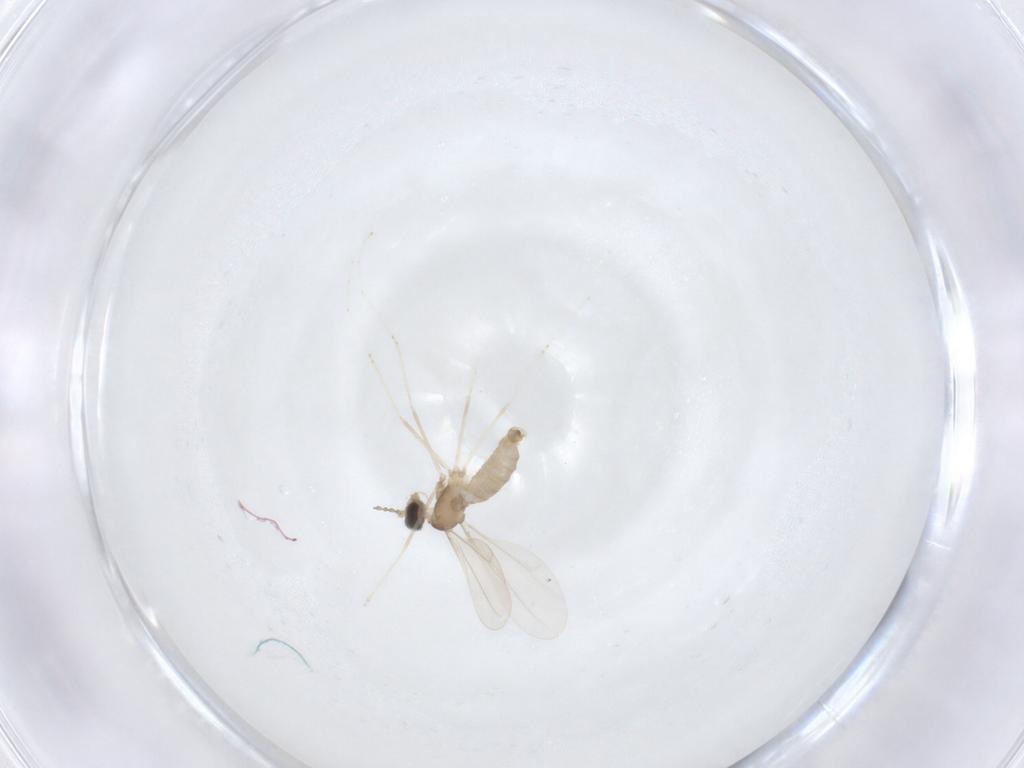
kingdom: Animalia
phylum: Arthropoda
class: Insecta
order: Diptera
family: Cecidomyiidae
